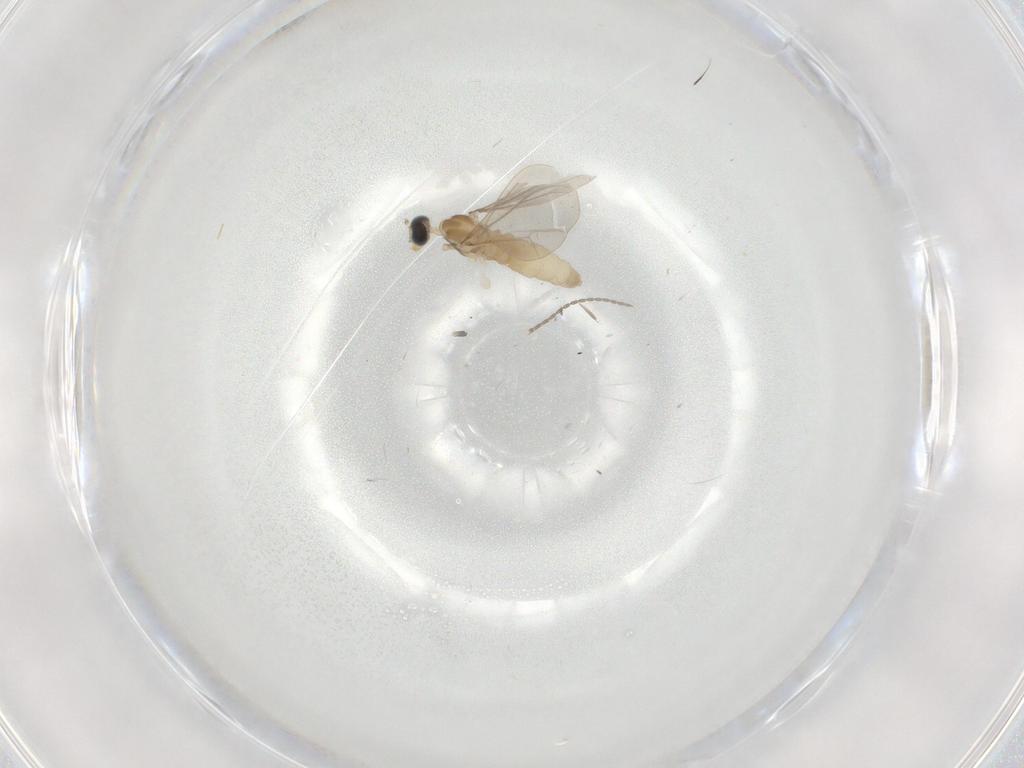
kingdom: Animalia
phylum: Arthropoda
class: Insecta
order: Diptera
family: Cecidomyiidae
